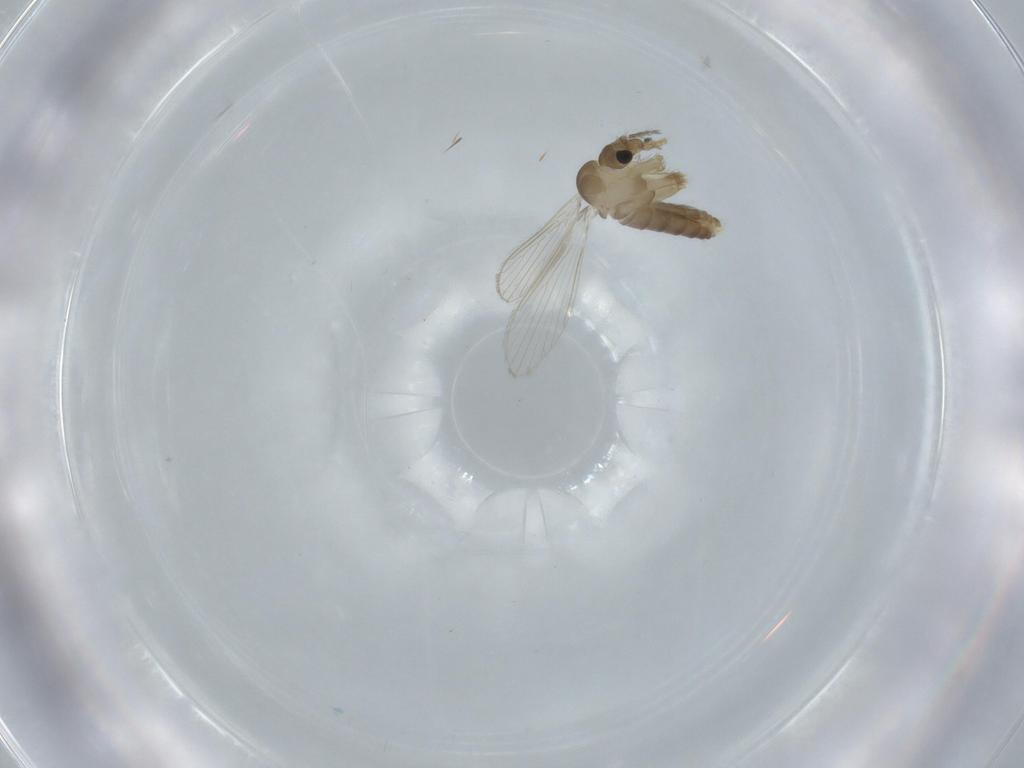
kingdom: Animalia
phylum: Arthropoda
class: Insecta
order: Diptera
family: Psychodidae
